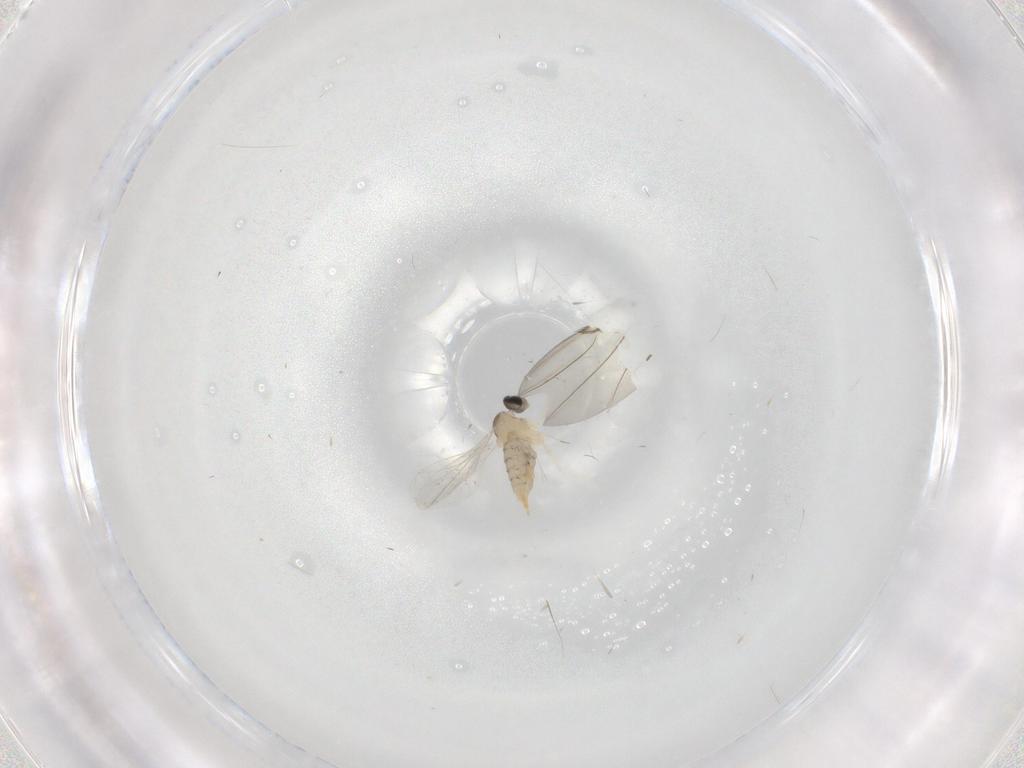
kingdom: Animalia
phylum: Arthropoda
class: Insecta
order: Diptera
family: Cecidomyiidae
